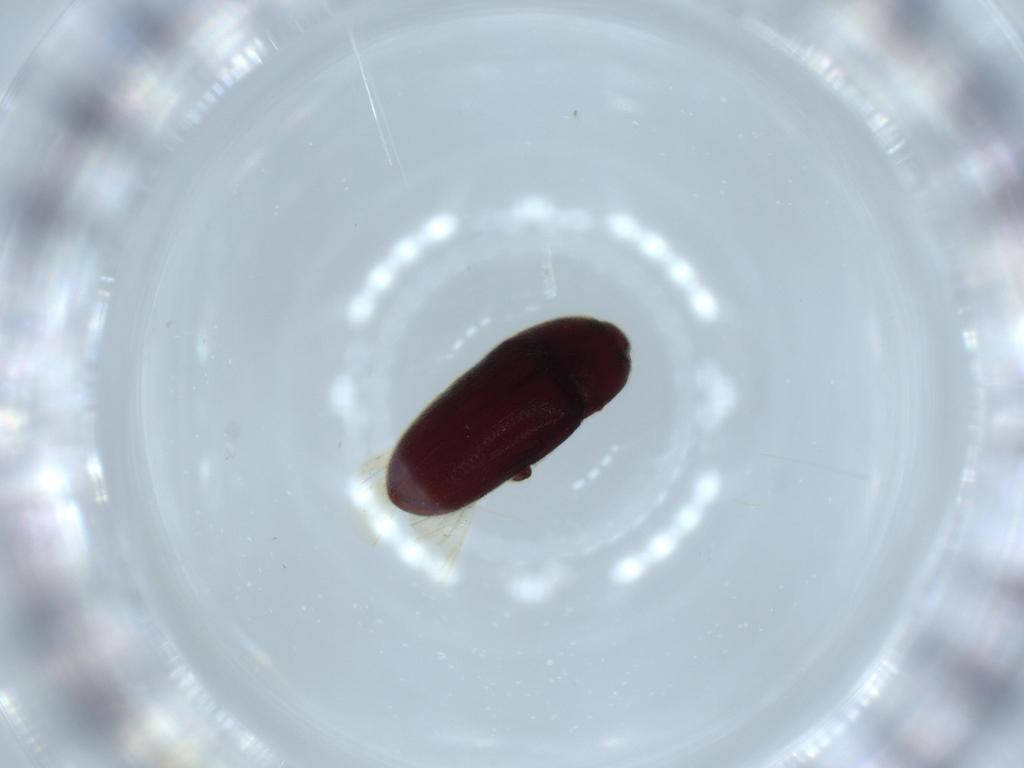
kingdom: Animalia
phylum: Arthropoda
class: Insecta
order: Coleoptera
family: Throscidae
